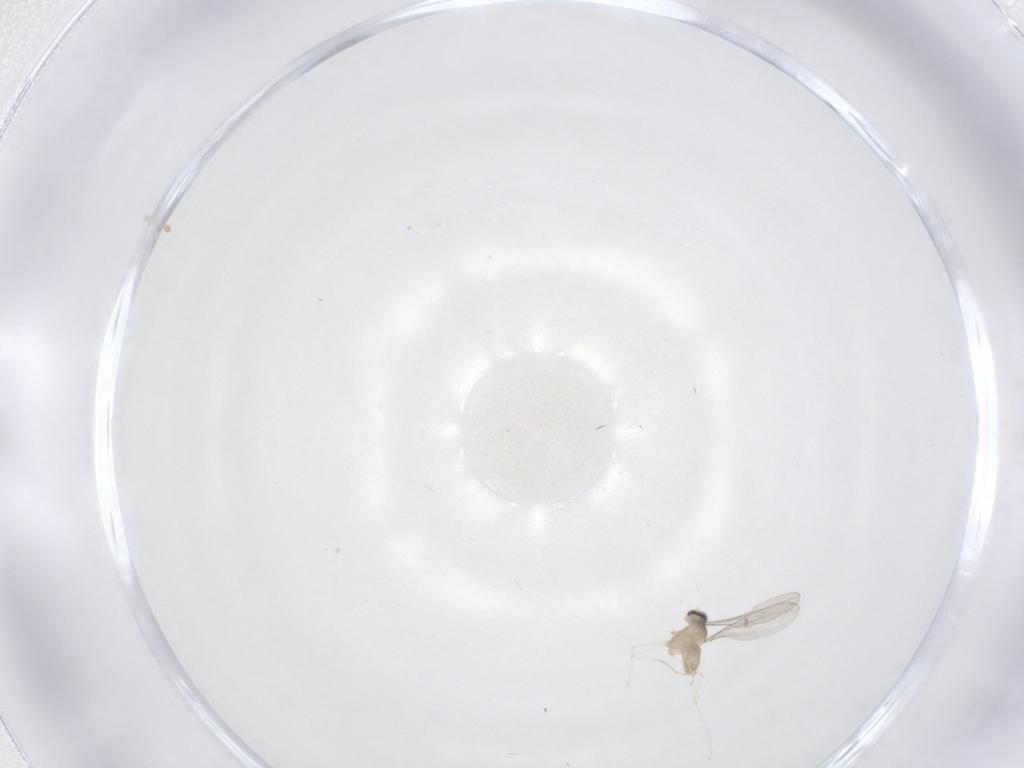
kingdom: Animalia
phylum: Arthropoda
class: Insecta
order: Diptera
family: Cecidomyiidae
